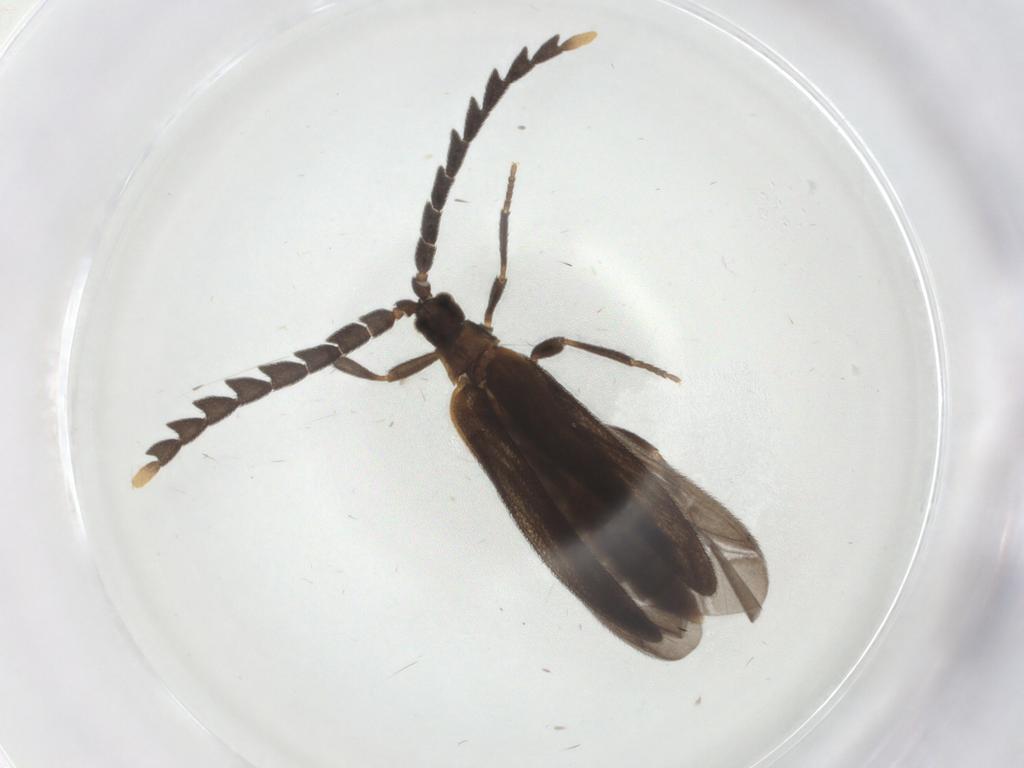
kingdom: Animalia
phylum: Arthropoda
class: Insecta
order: Coleoptera
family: Lycidae
